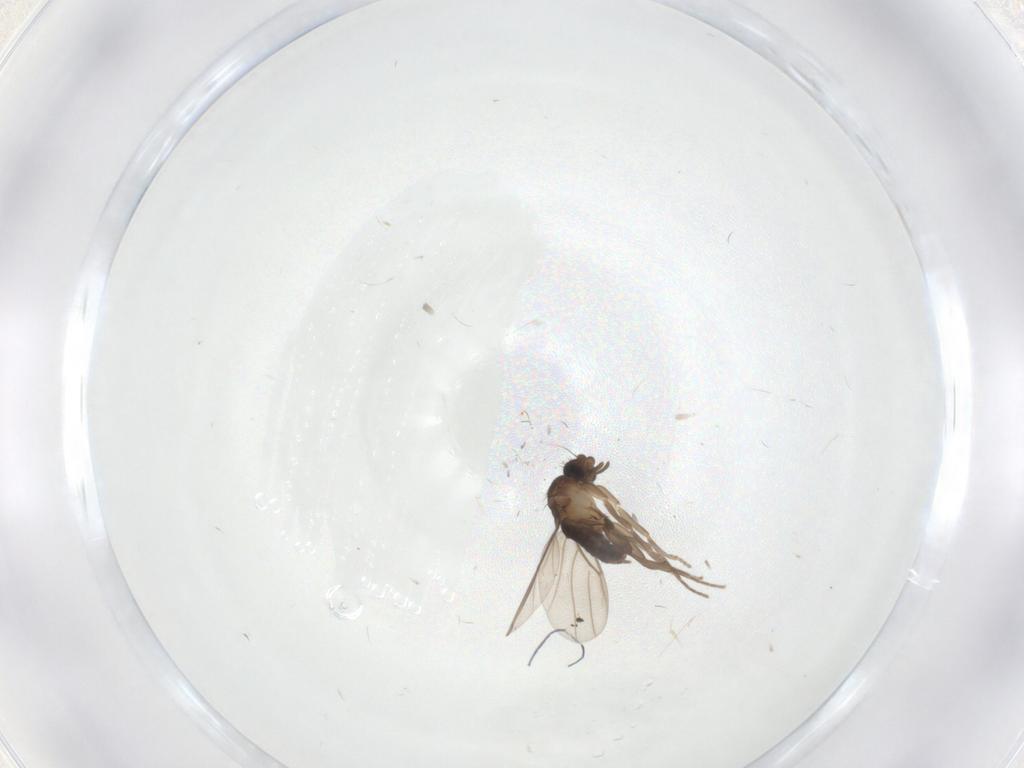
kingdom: Animalia
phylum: Arthropoda
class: Insecta
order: Diptera
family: Phoridae
